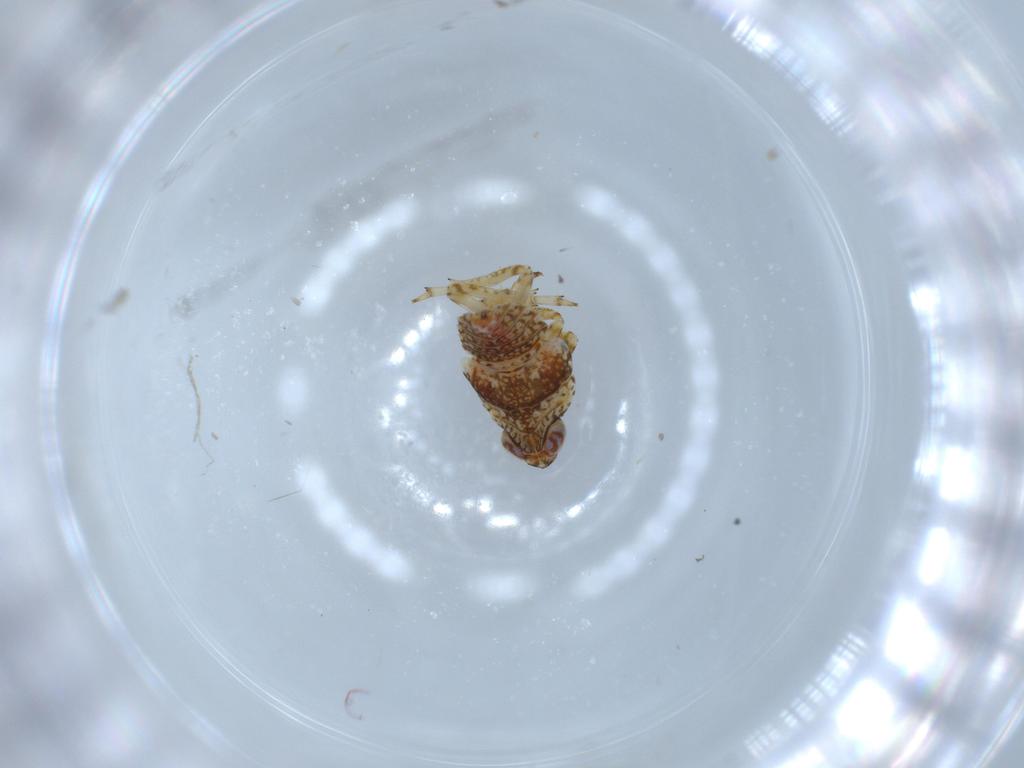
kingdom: Animalia
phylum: Arthropoda
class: Insecta
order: Hemiptera
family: Issidae
